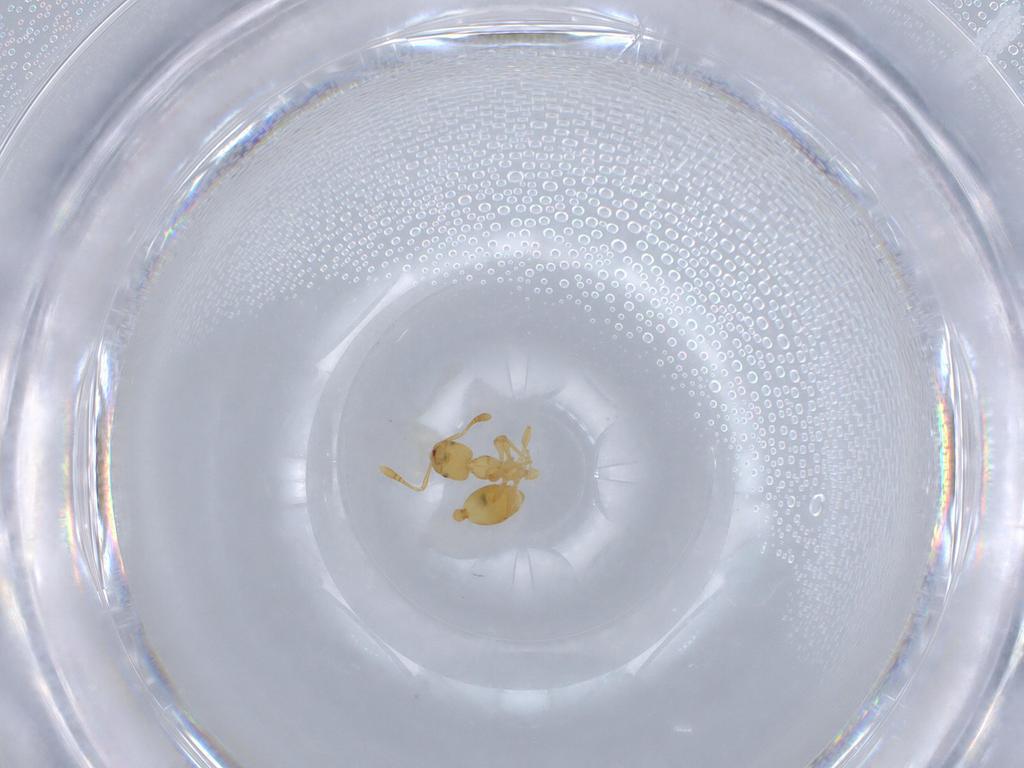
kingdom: Animalia
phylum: Arthropoda
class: Insecta
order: Hymenoptera
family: Formicidae
